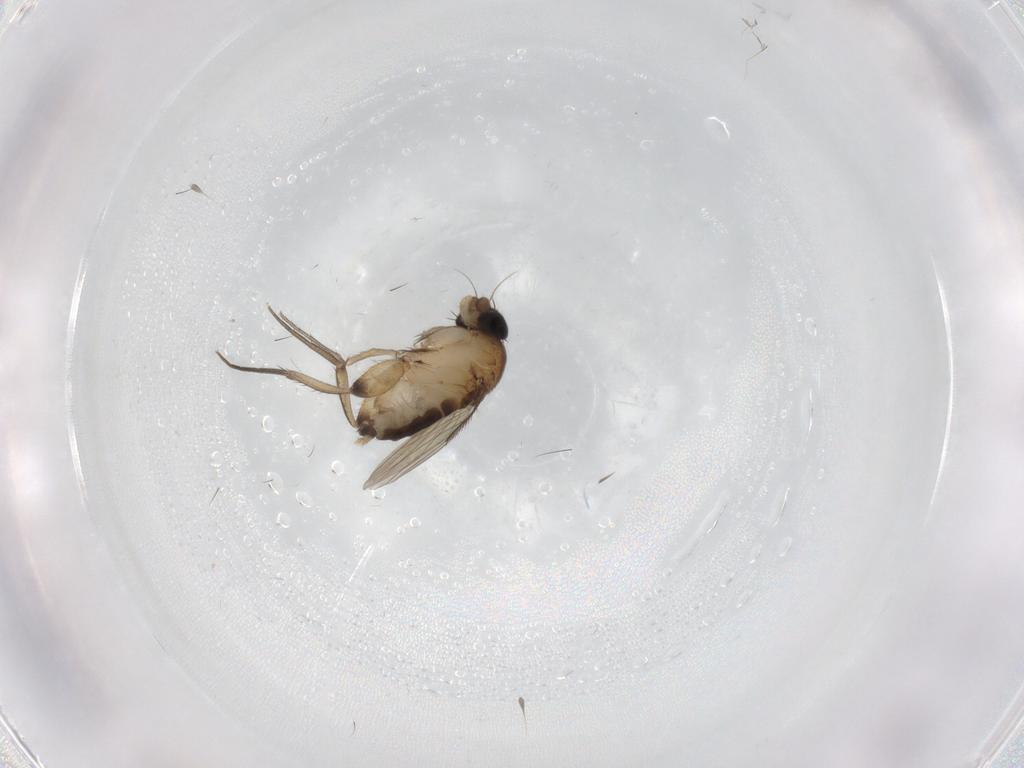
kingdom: Animalia
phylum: Arthropoda
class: Insecta
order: Diptera
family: Phoridae
